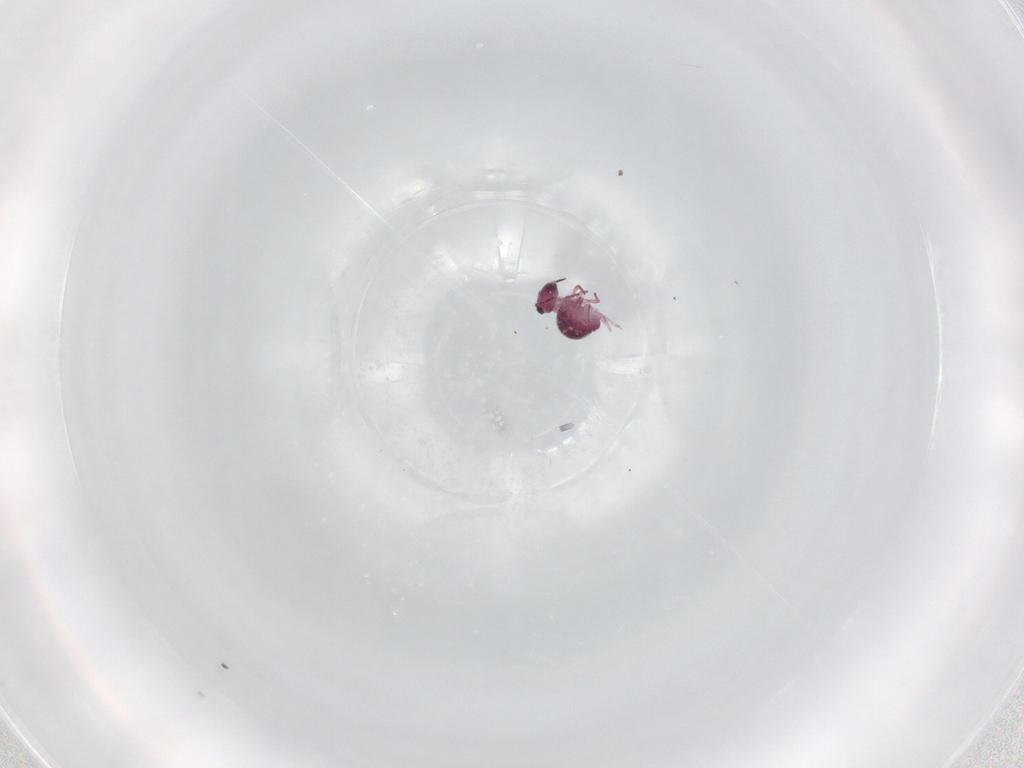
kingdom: Animalia
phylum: Arthropoda
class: Collembola
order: Symphypleona
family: Sminthurididae
